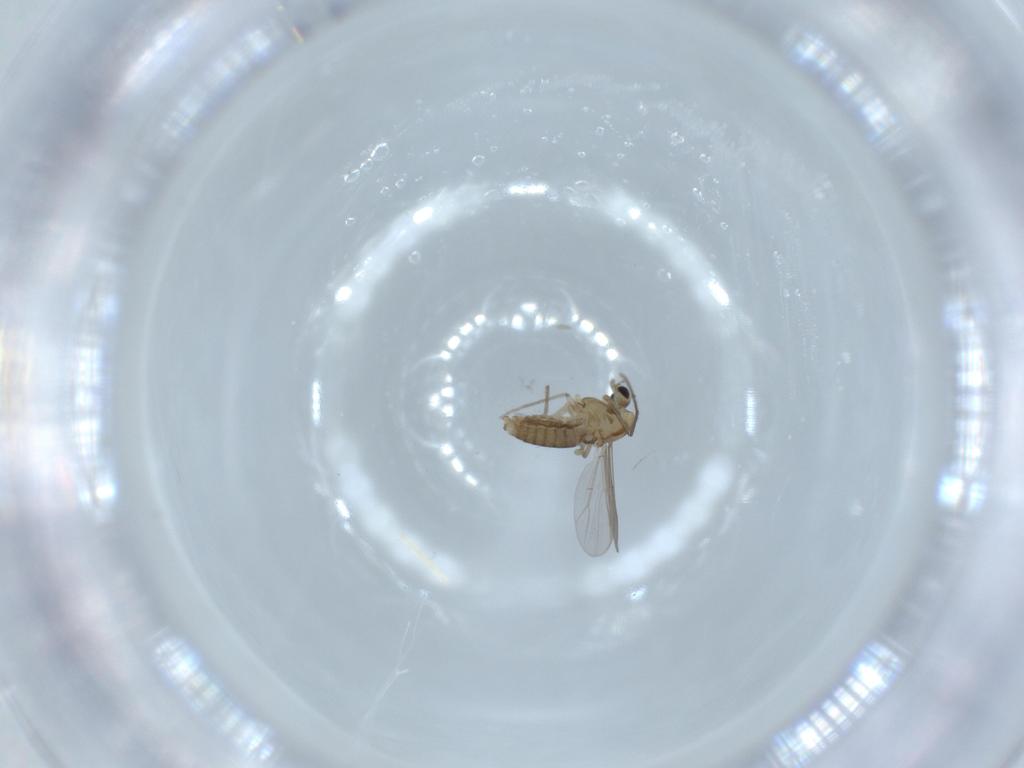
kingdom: Animalia
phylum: Arthropoda
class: Insecta
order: Diptera
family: Chironomidae
